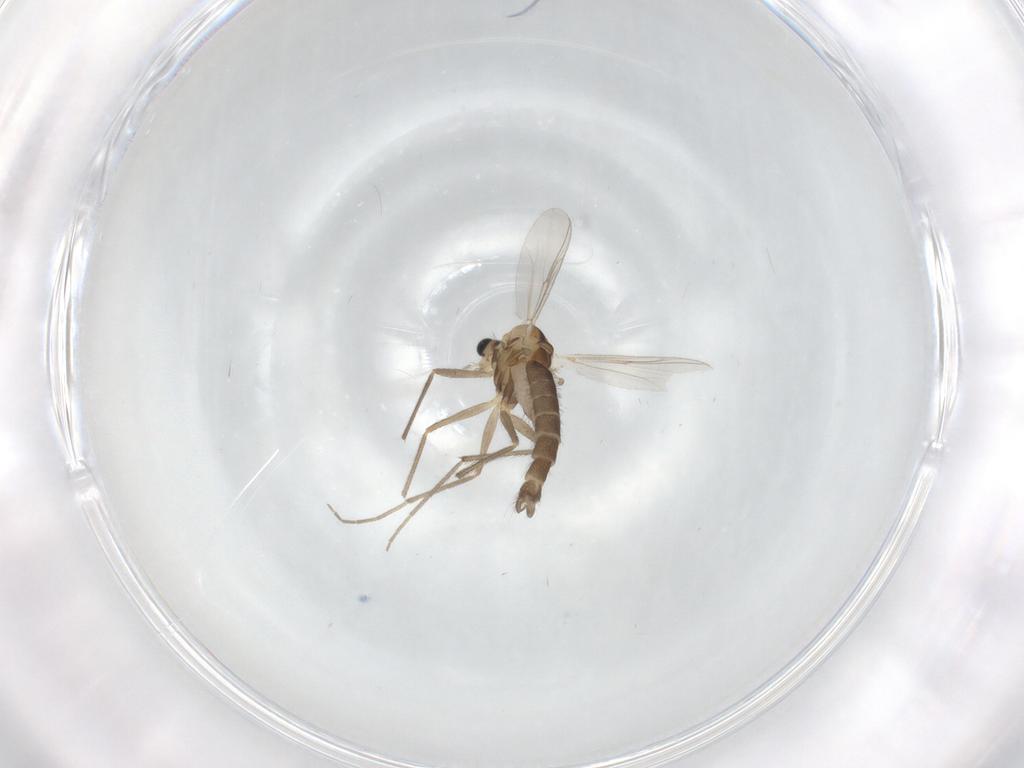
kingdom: Animalia
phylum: Arthropoda
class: Insecta
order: Diptera
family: Chironomidae
